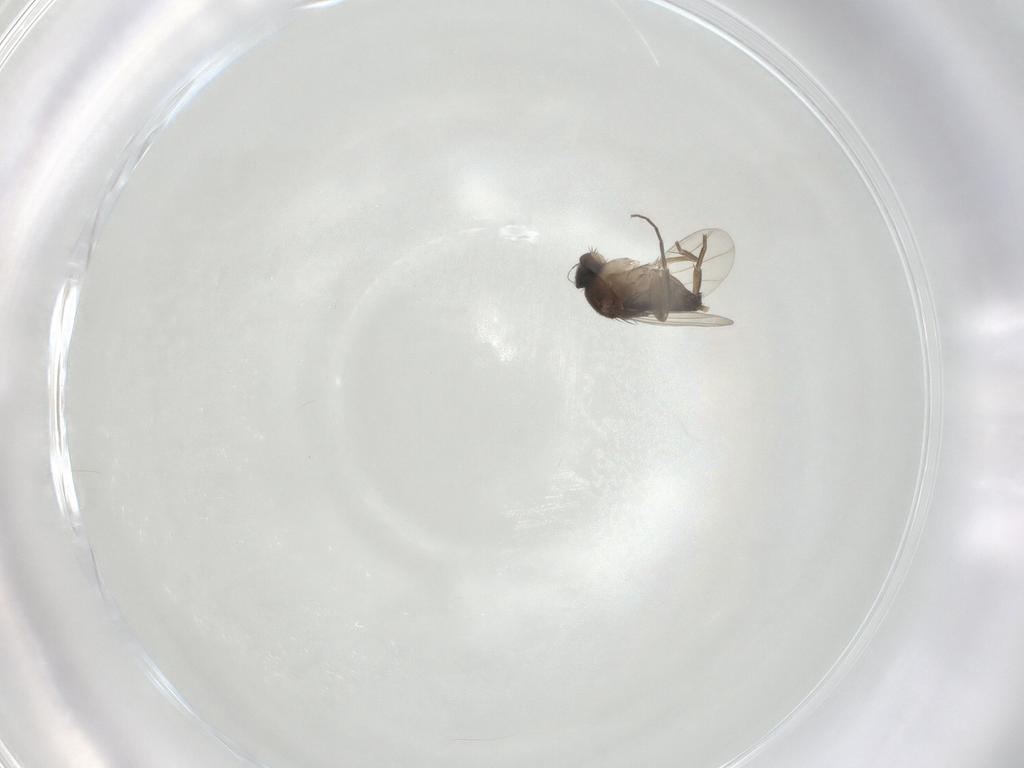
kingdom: Animalia
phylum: Arthropoda
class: Insecta
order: Diptera
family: Phoridae
